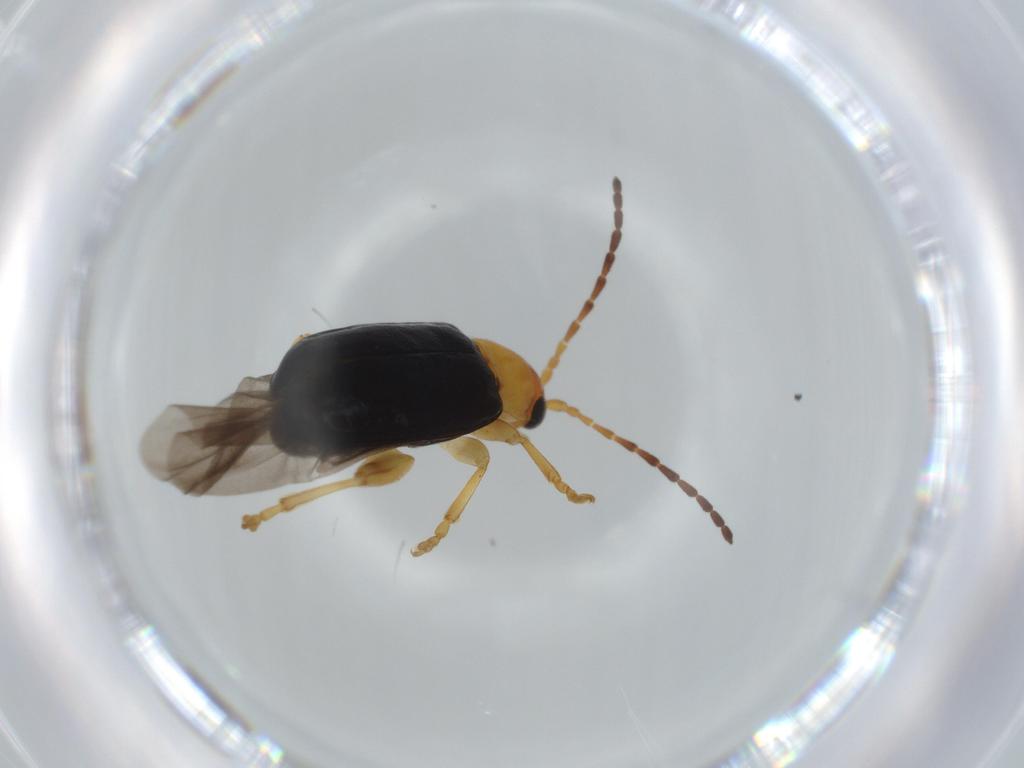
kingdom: Animalia
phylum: Arthropoda
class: Insecta
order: Coleoptera
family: Chrysomelidae
